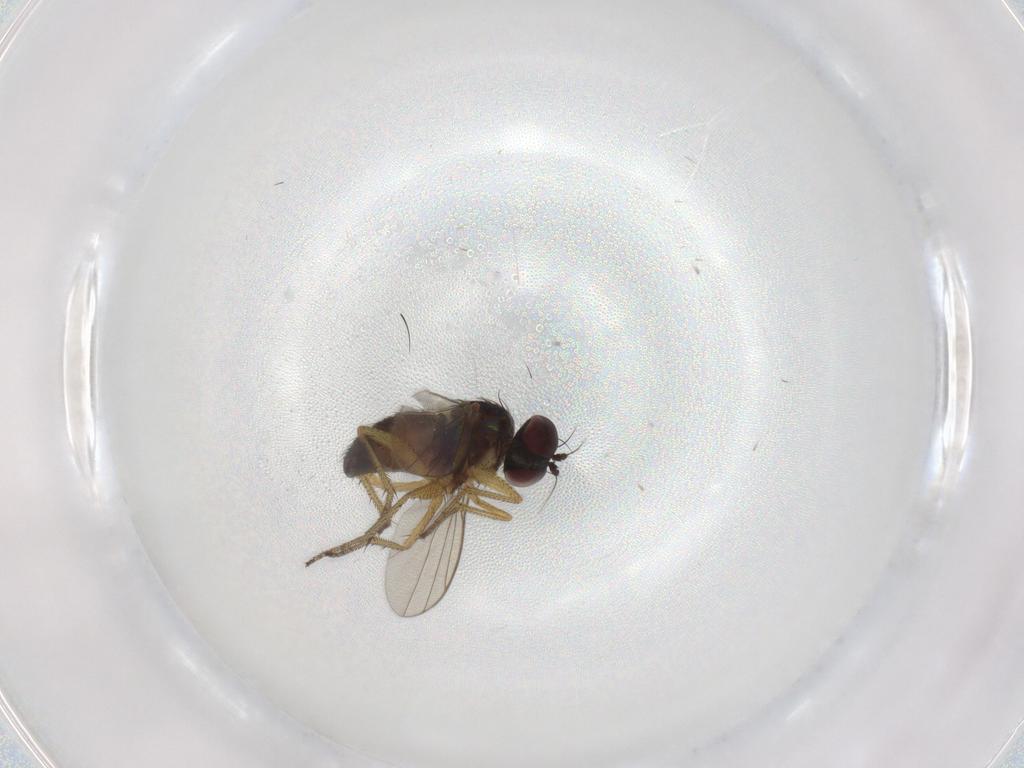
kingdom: Animalia
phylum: Arthropoda
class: Insecta
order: Diptera
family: Dolichopodidae
